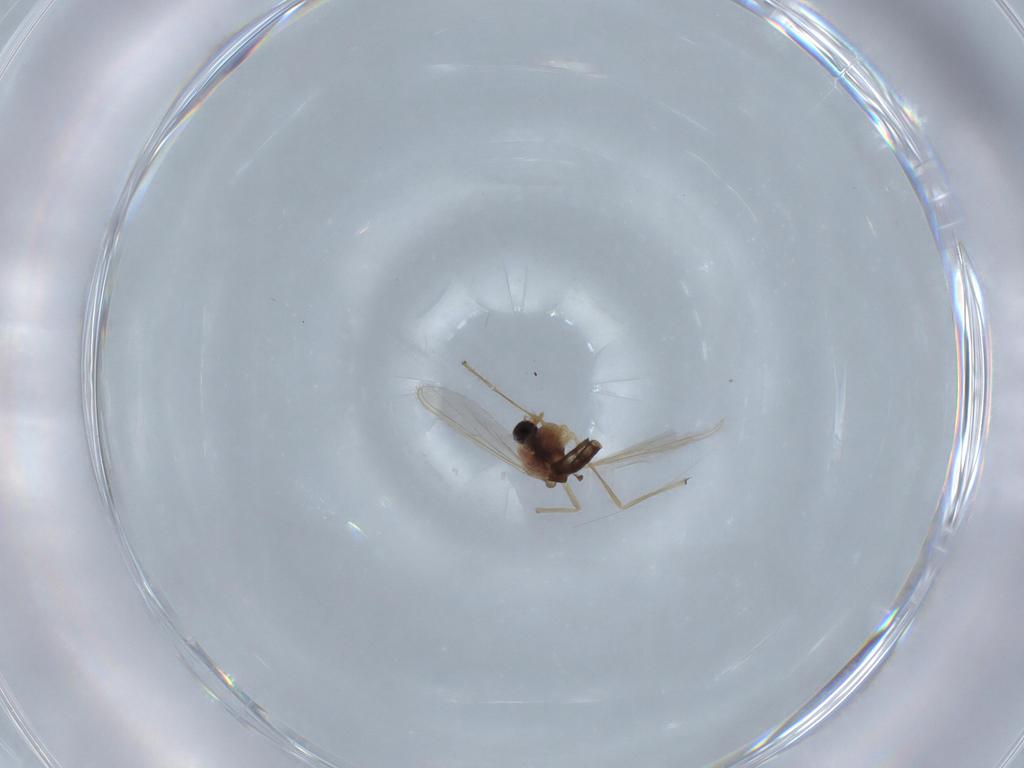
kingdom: Animalia
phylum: Arthropoda
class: Insecta
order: Diptera
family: Chironomidae
